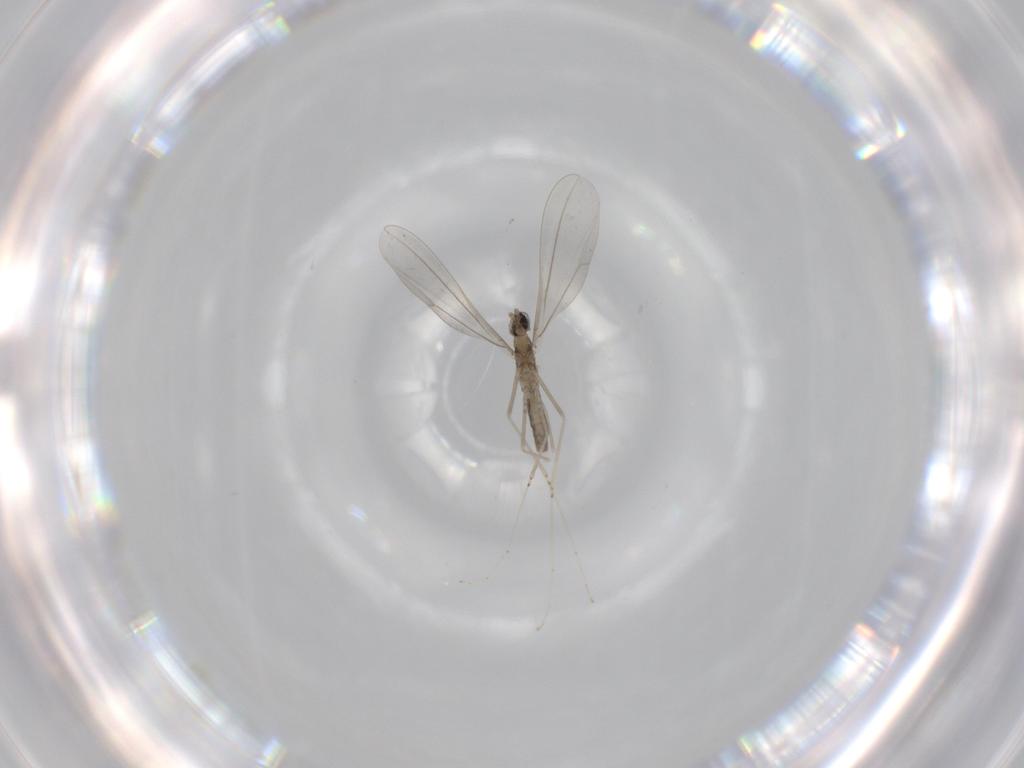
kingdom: Animalia
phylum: Arthropoda
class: Insecta
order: Diptera
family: Cecidomyiidae
